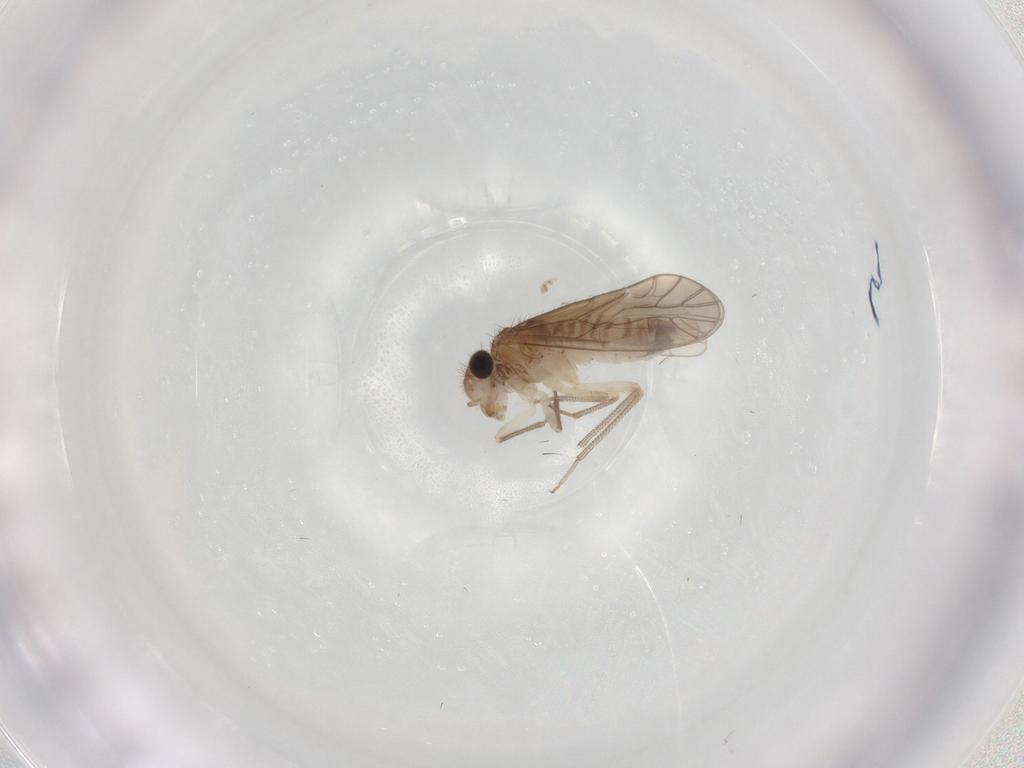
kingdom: Animalia
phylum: Arthropoda
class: Insecta
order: Psocodea
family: Caeciliusidae
